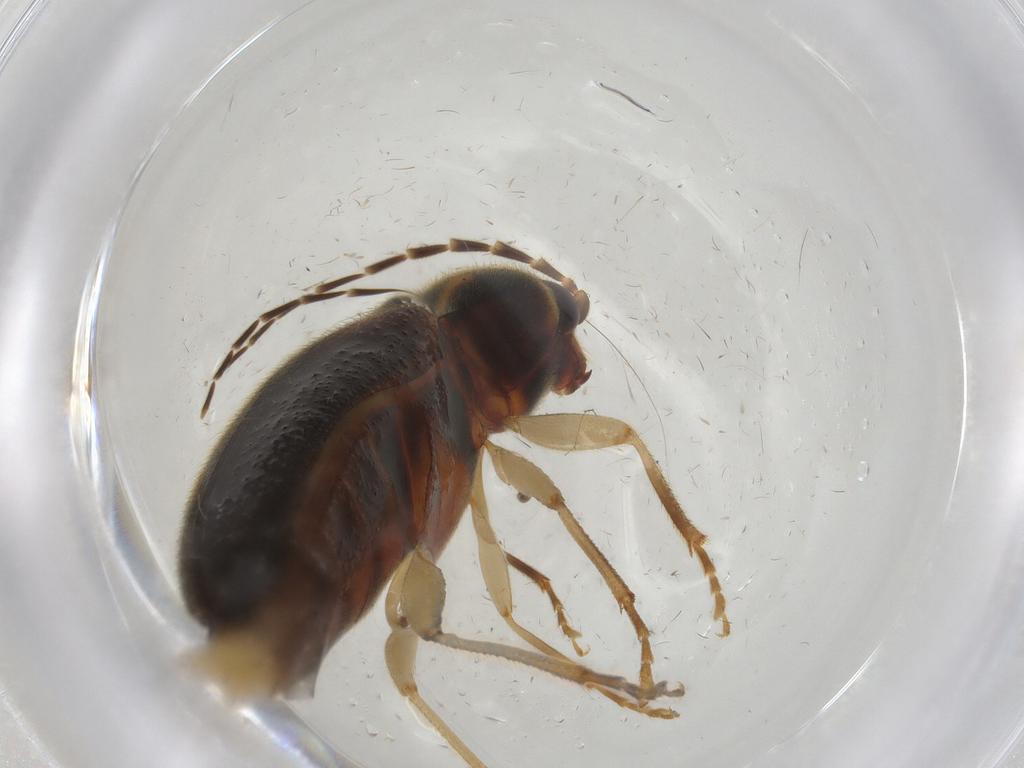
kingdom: Animalia
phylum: Arthropoda
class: Insecta
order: Coleoptera
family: Elateridae
